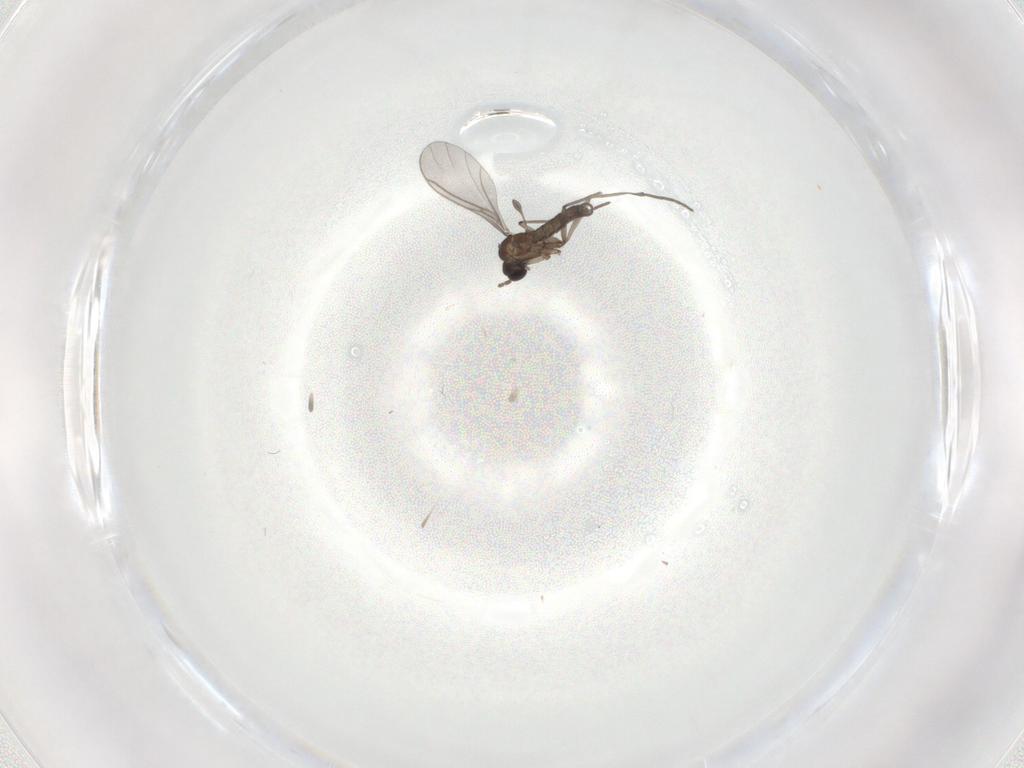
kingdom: Animalia
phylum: Arthropoda
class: Insecta
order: Diptera
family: Sciaridae
